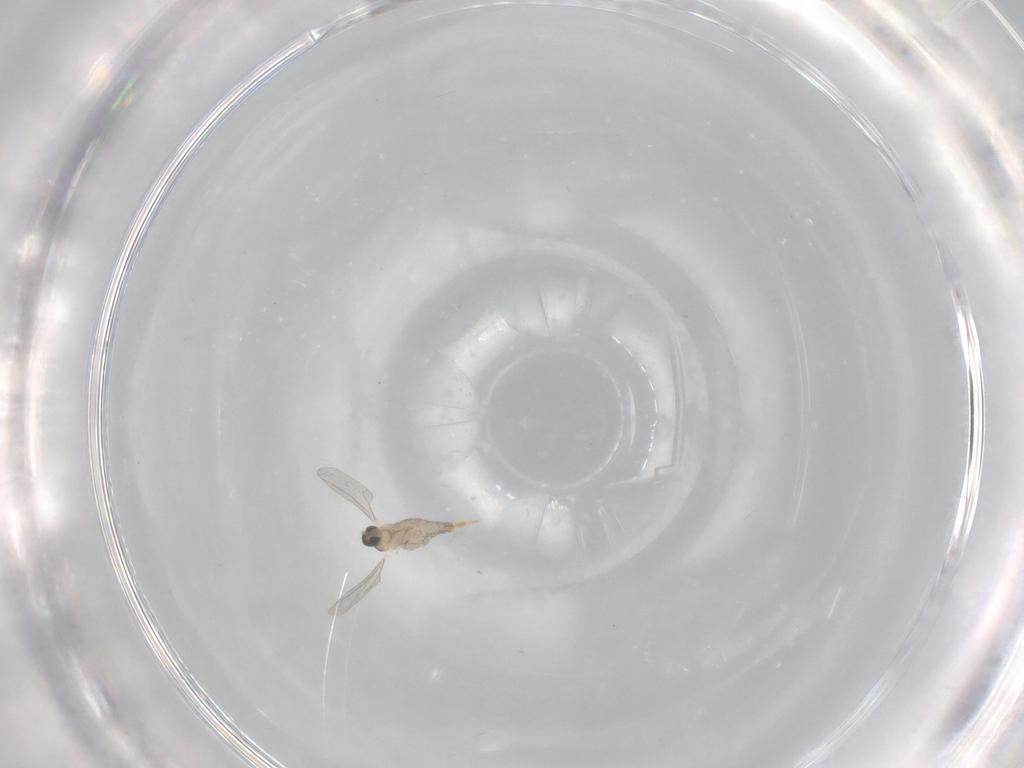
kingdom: Animalia
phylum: Arthropoda
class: Insecta
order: Diptera
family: Cecidomyiidae
